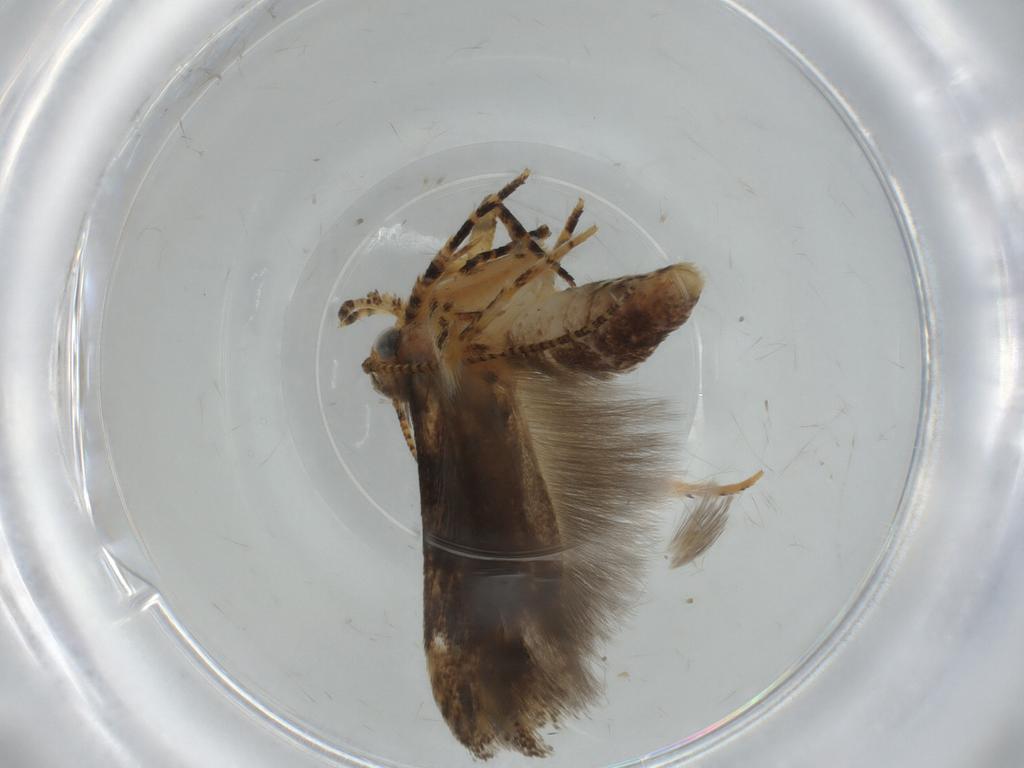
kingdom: Animalia
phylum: Arthropoda
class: Insecta
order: Lepidoptera
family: Gelechiidae
